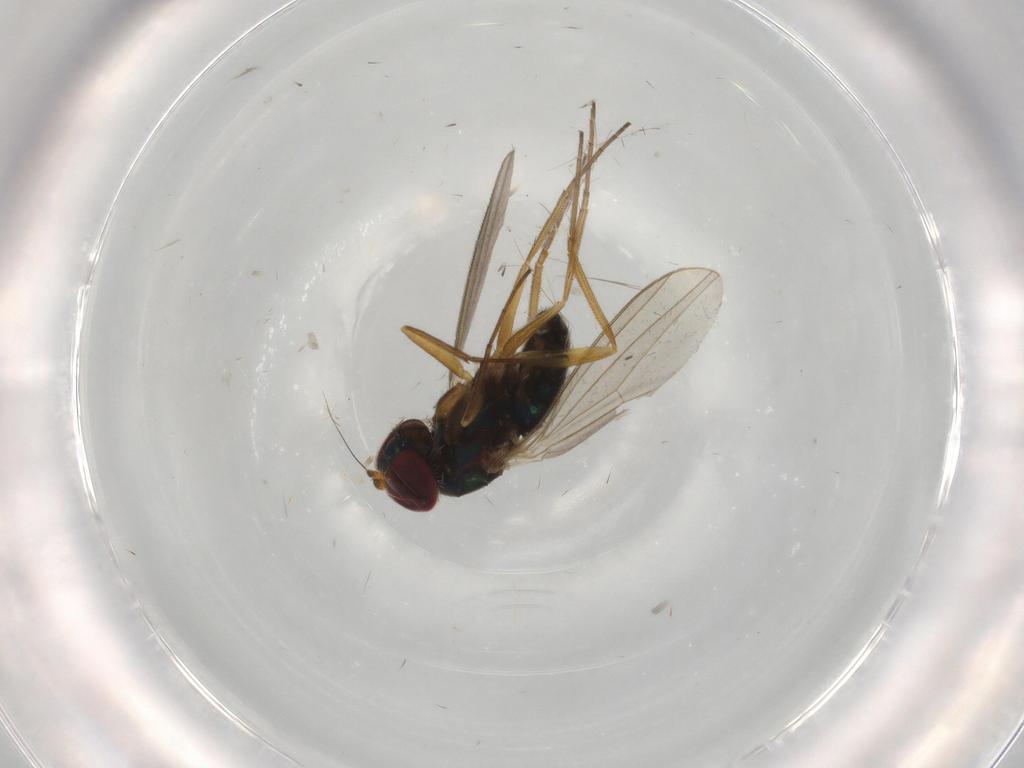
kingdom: Animalia
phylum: Arthropoda
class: Insecta
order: Diptera
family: Dolichopodidae
